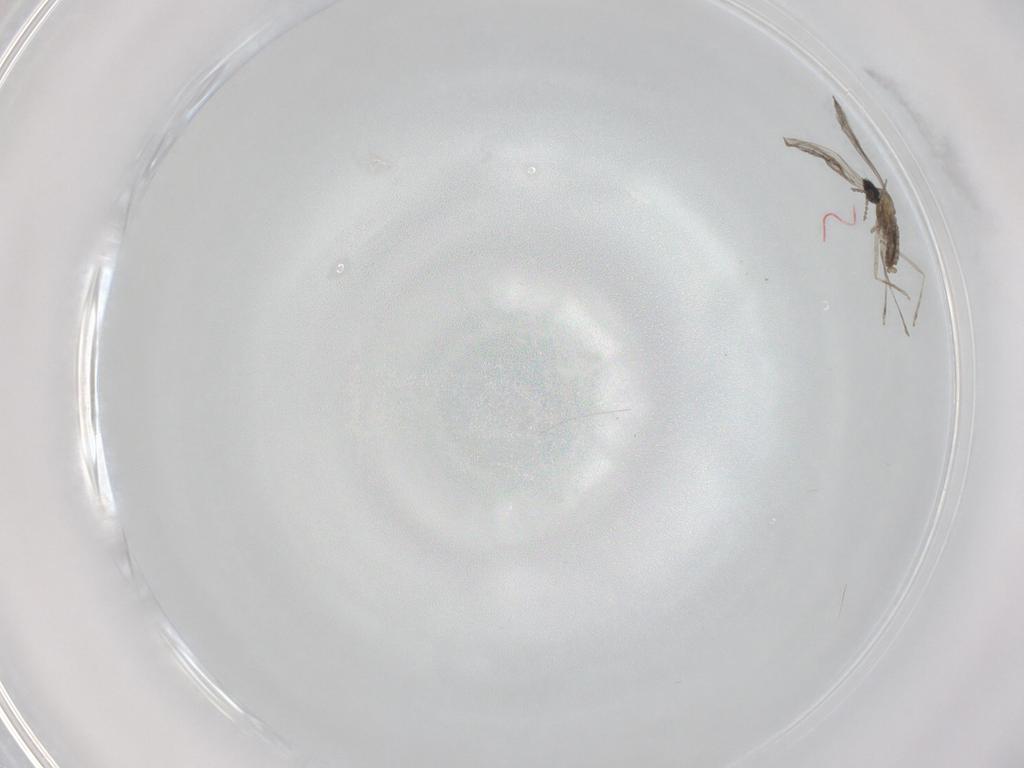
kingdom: Animalia
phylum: Arthropoda
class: Insecta
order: Diptera
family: Cecidomyiidae
